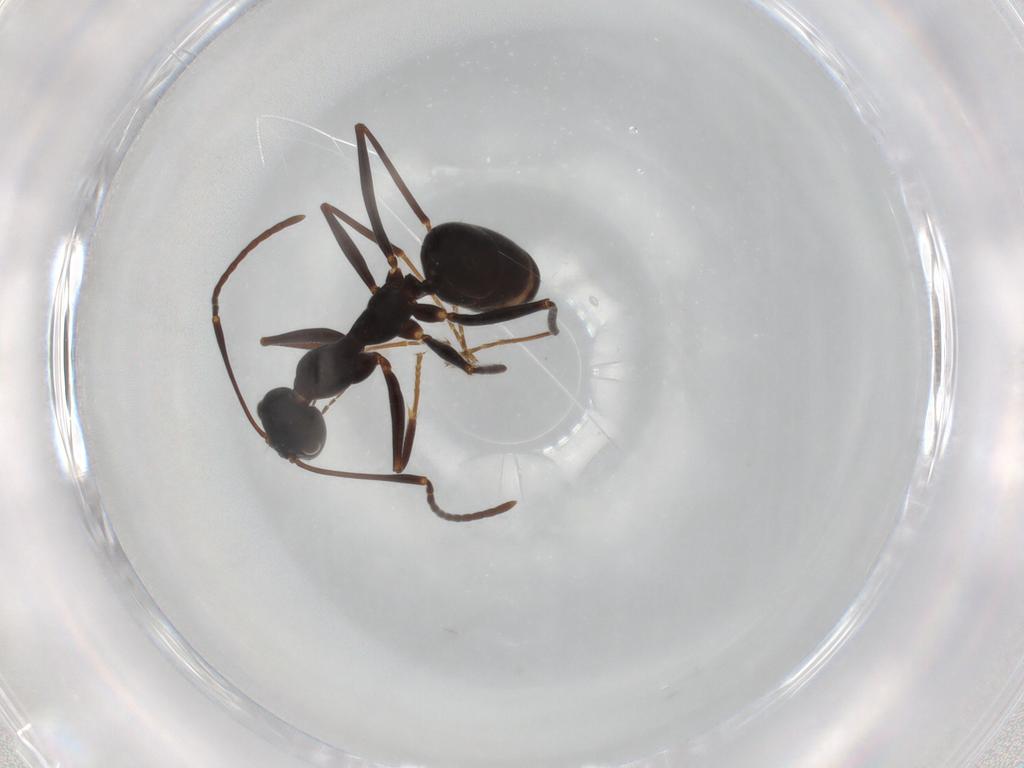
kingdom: Animalia
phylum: Arthropoda
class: Insecta
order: Hymenoptera
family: Formicidae
